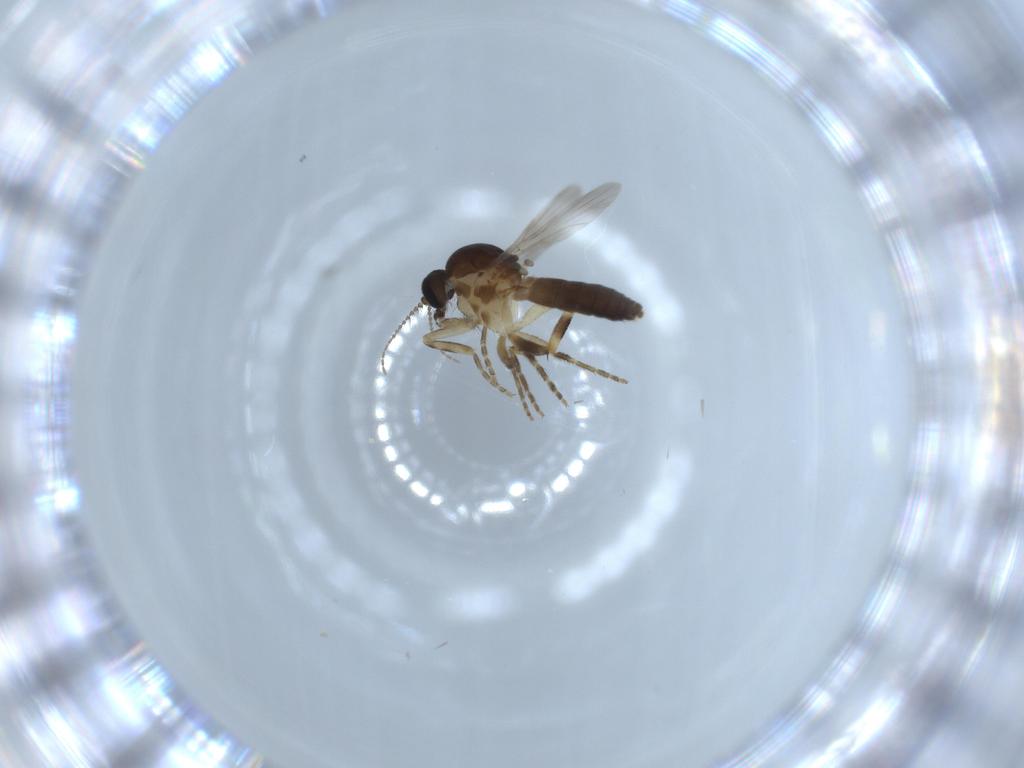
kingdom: Animalia
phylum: Arthropoda
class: Insecta
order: Diptera
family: Ceratopogonidae
